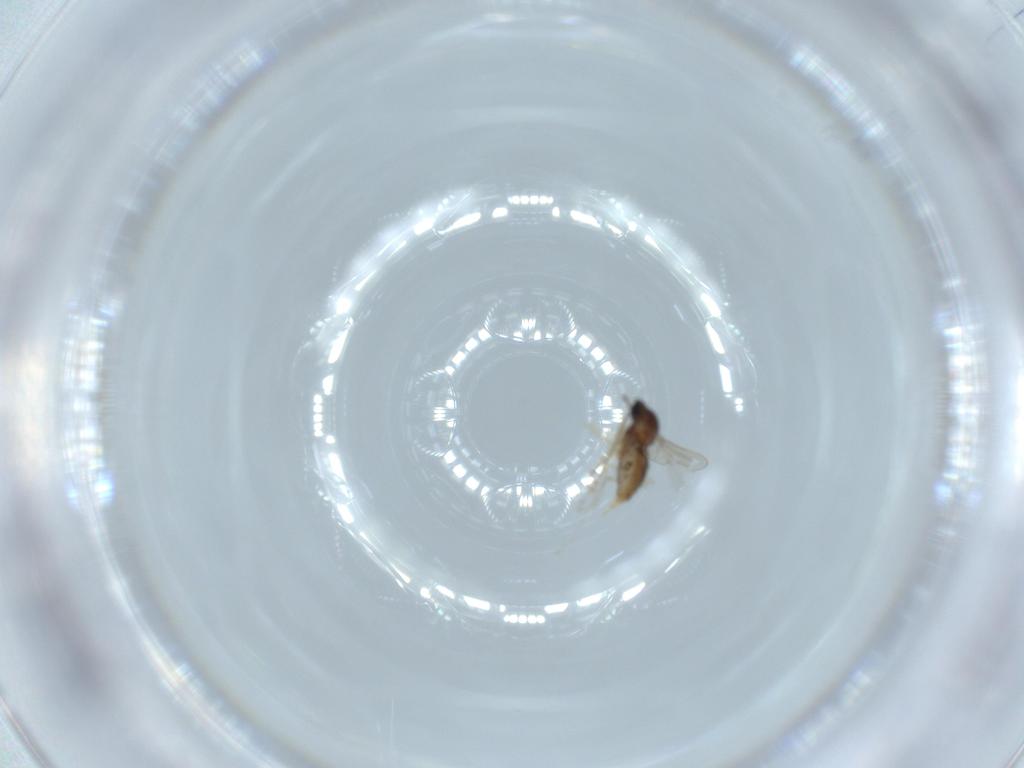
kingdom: Animalia
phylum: Arthropoda
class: Insecta
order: Diptera
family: Cecidomyiidae
